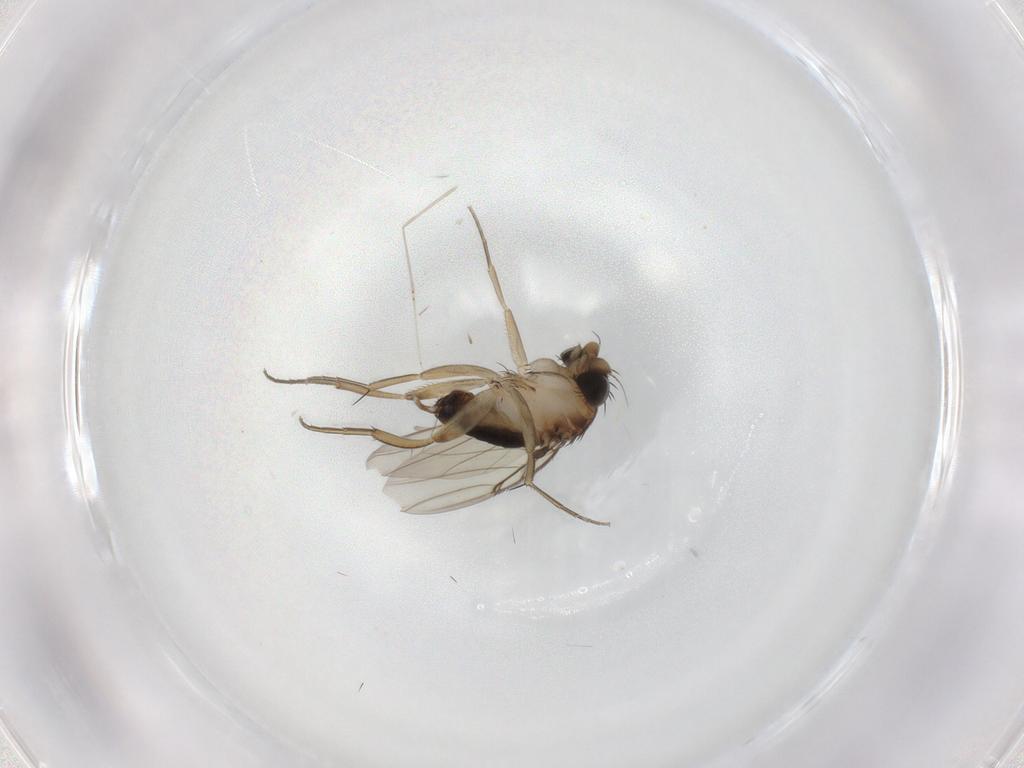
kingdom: Animalia
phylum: Arthropoda
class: Insecta
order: Diptera
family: Phoridae
